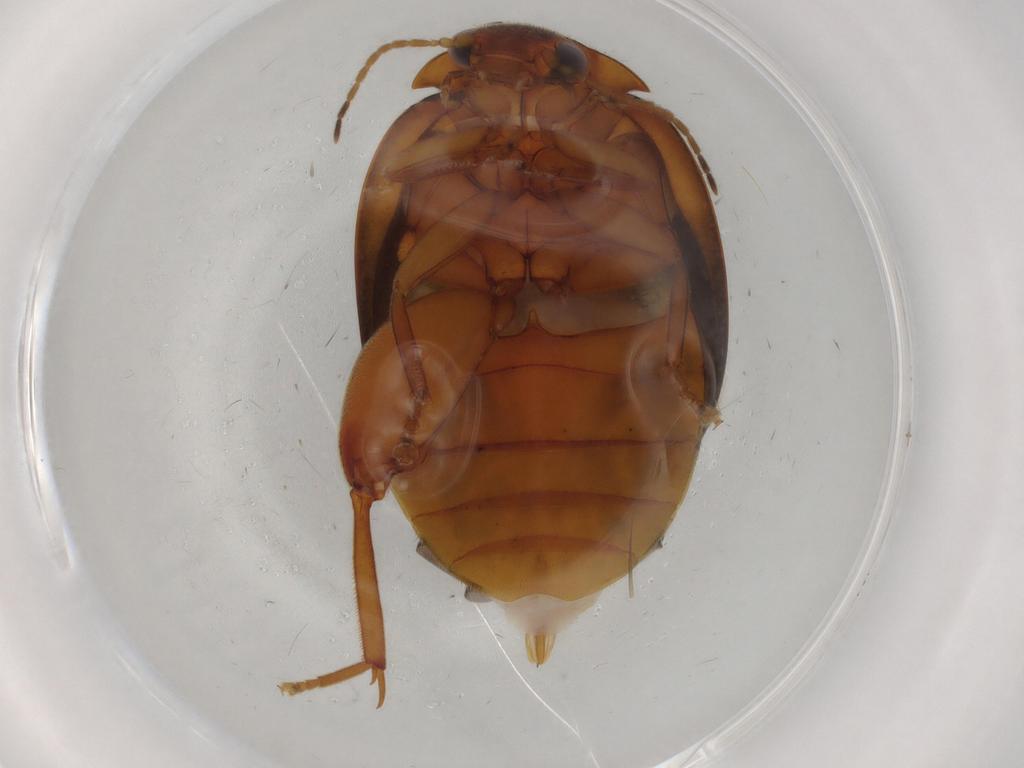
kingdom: Animalia
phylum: Arthropoda
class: Insecta
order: Coleoptera
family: Scirtidae
